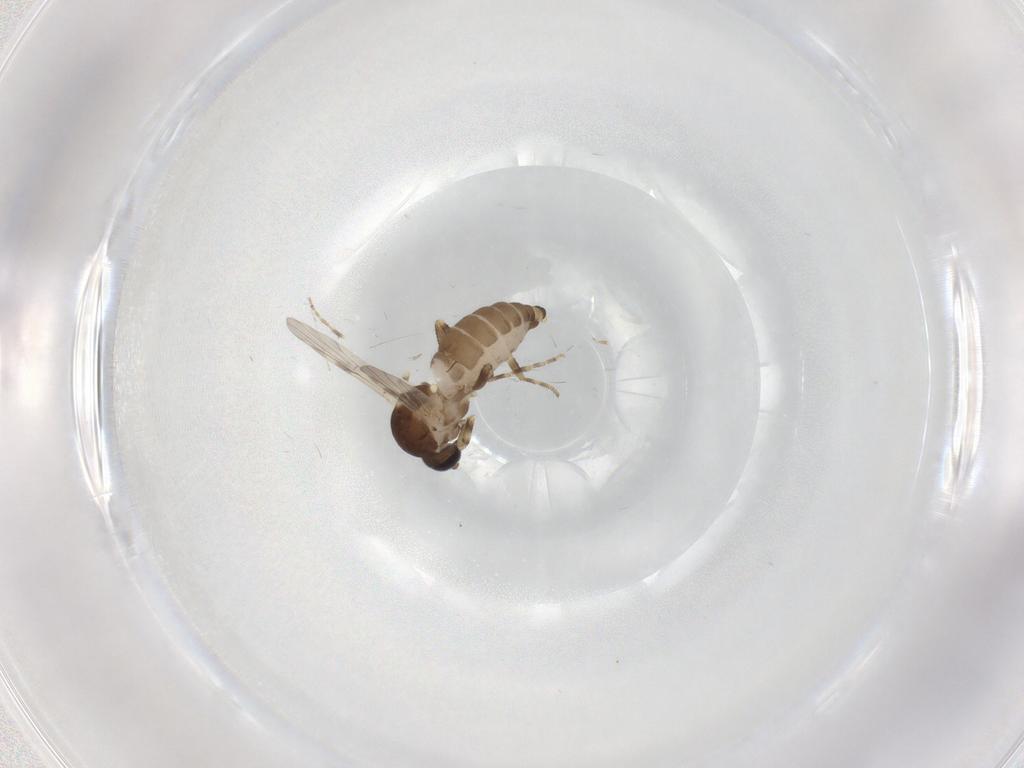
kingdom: Animalia
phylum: Arthropoda
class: Insecta
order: Diptera
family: Ceratopogonidae
